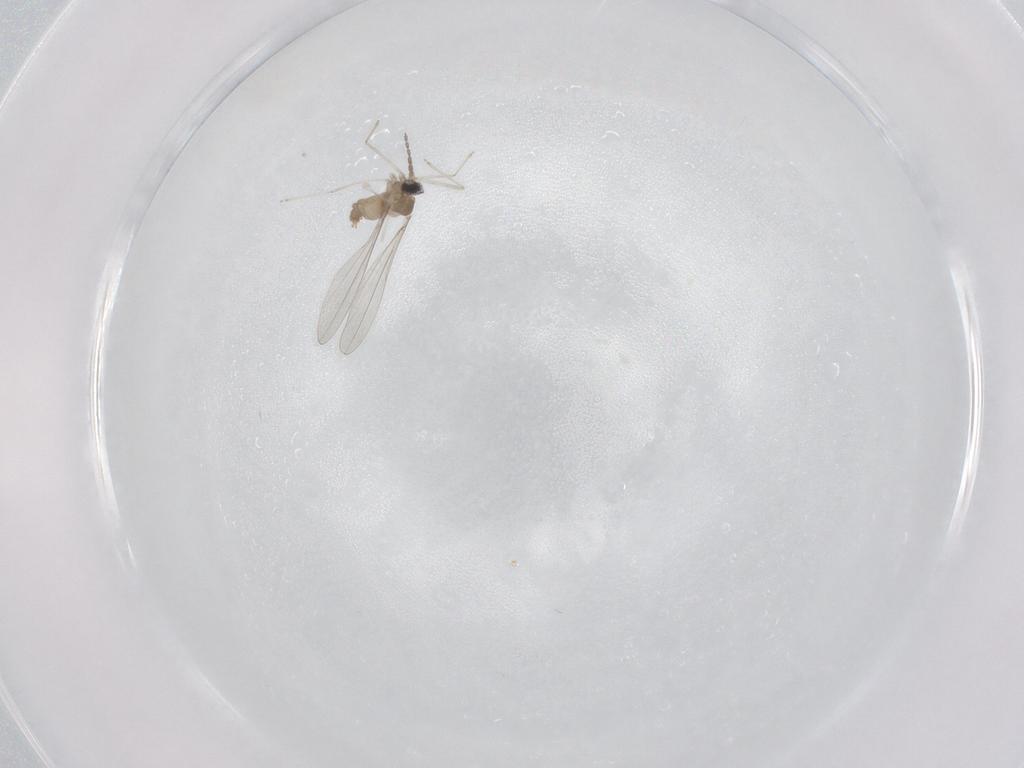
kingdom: Animalia
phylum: Arthropoda
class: Insecta
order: Diptera
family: Cecidomyiidae
